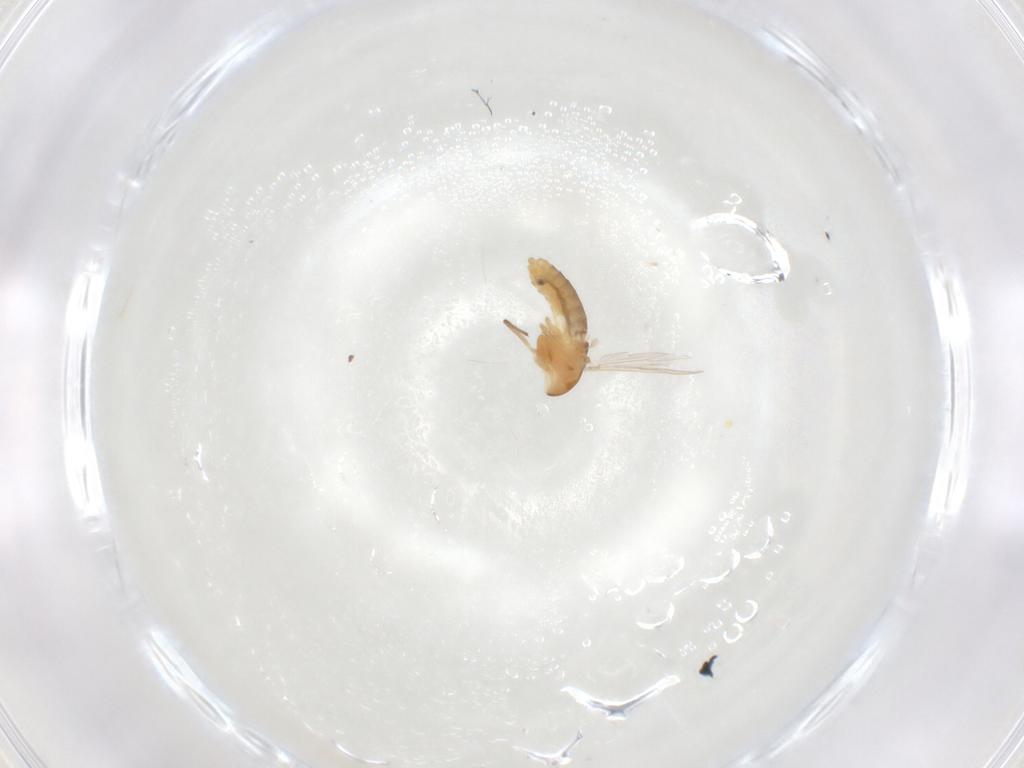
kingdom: Animalia
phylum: Arthropoda
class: Insecta
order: Diptera
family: Chironomidae
